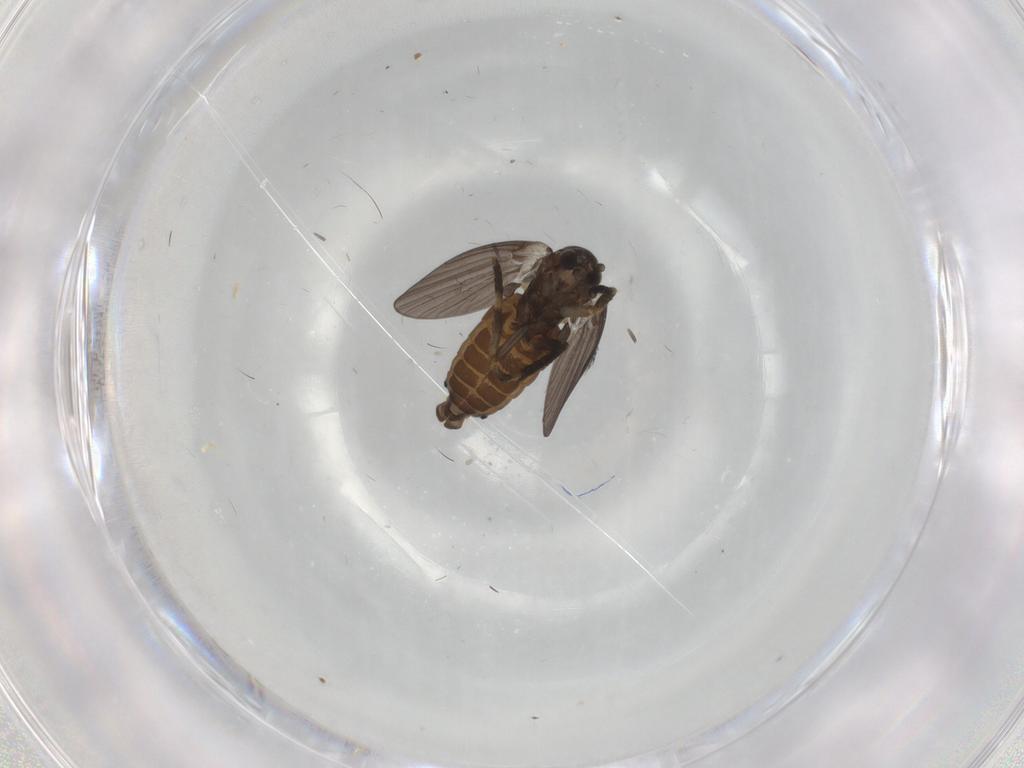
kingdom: Animalia
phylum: Arthropoda
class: Insecta
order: Diptera
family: Psychodidae
